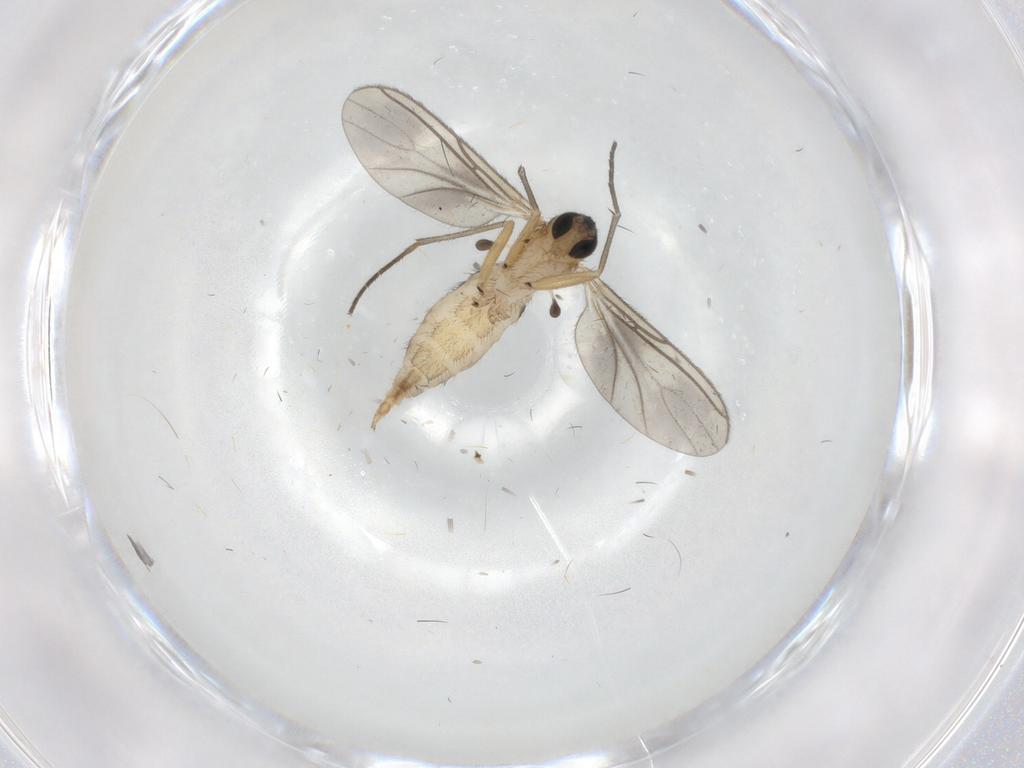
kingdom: Animalia
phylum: Arthropoda
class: Insecta
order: Diptera
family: Sciaridae
